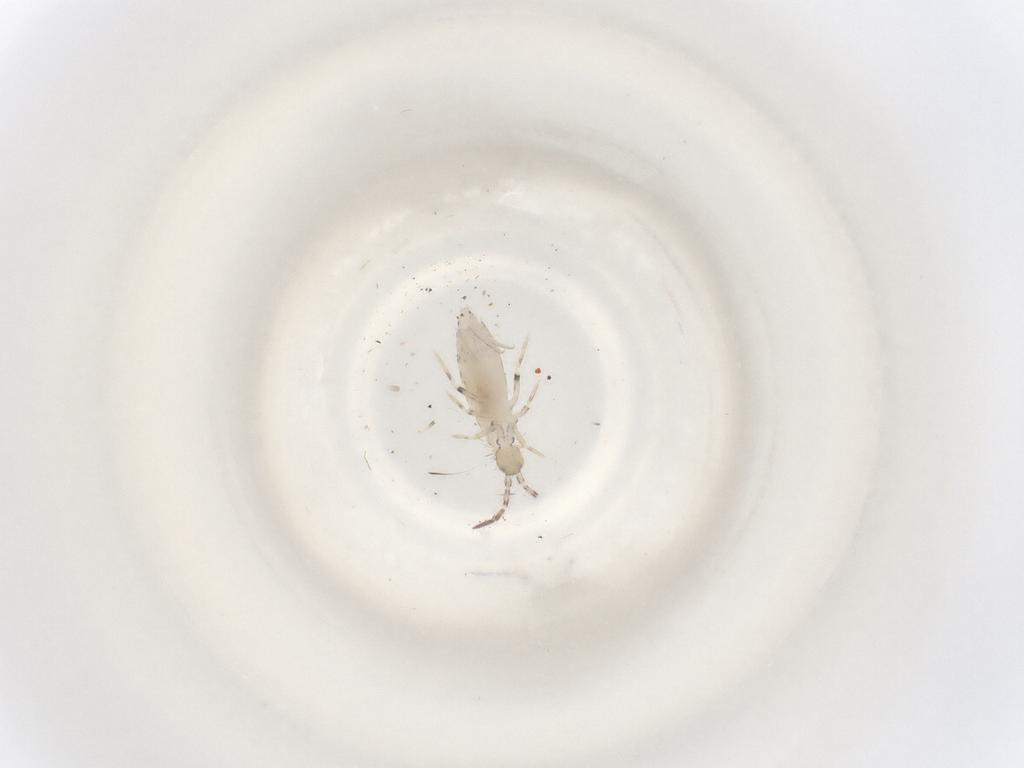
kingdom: Animalia
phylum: Arthropoda
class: Collembola
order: Entomobryomorpha
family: Entomobryidae
